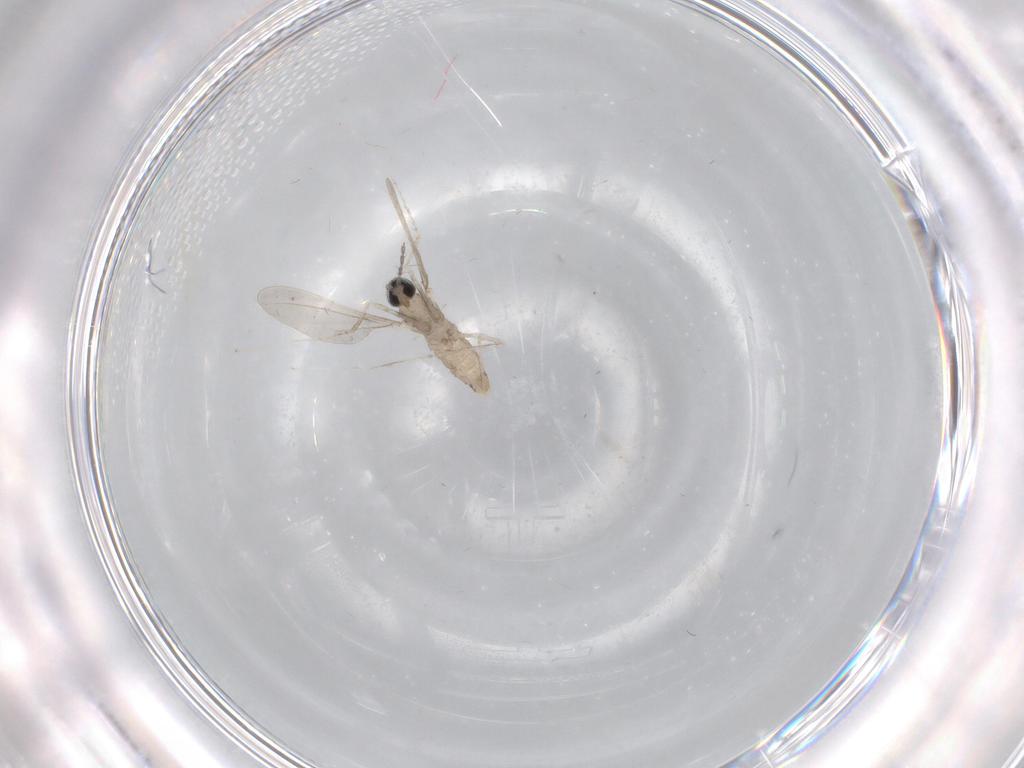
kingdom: Animalia
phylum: Arthropoda
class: Insecta
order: Diptera
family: Cecidomyiidae
